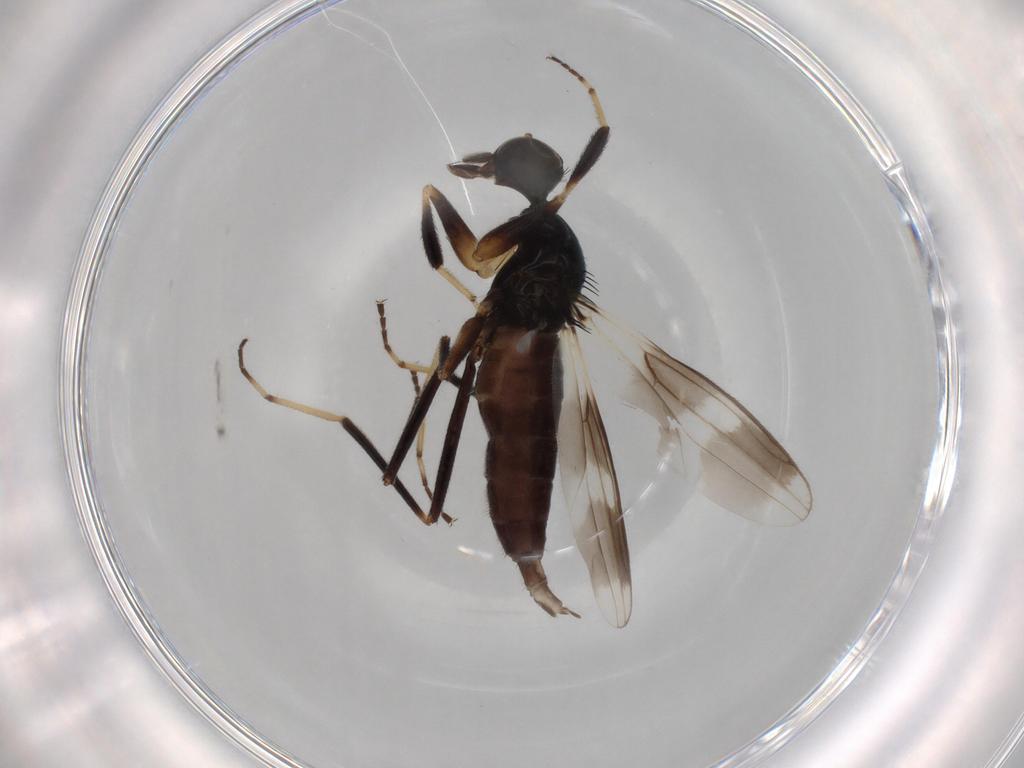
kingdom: Animalia
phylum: Arthropoda
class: Insecta
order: Diptera
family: Hybotidae
